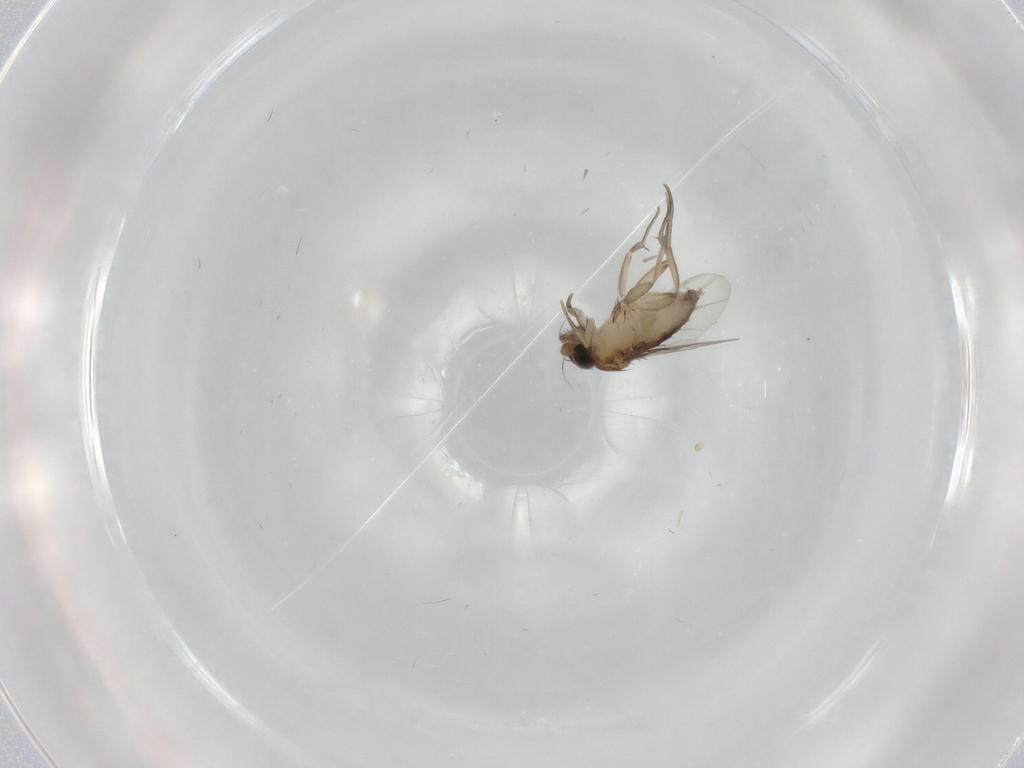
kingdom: Animalia
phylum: Arthropoda
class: Insecta
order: Diptera
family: Phoridae
